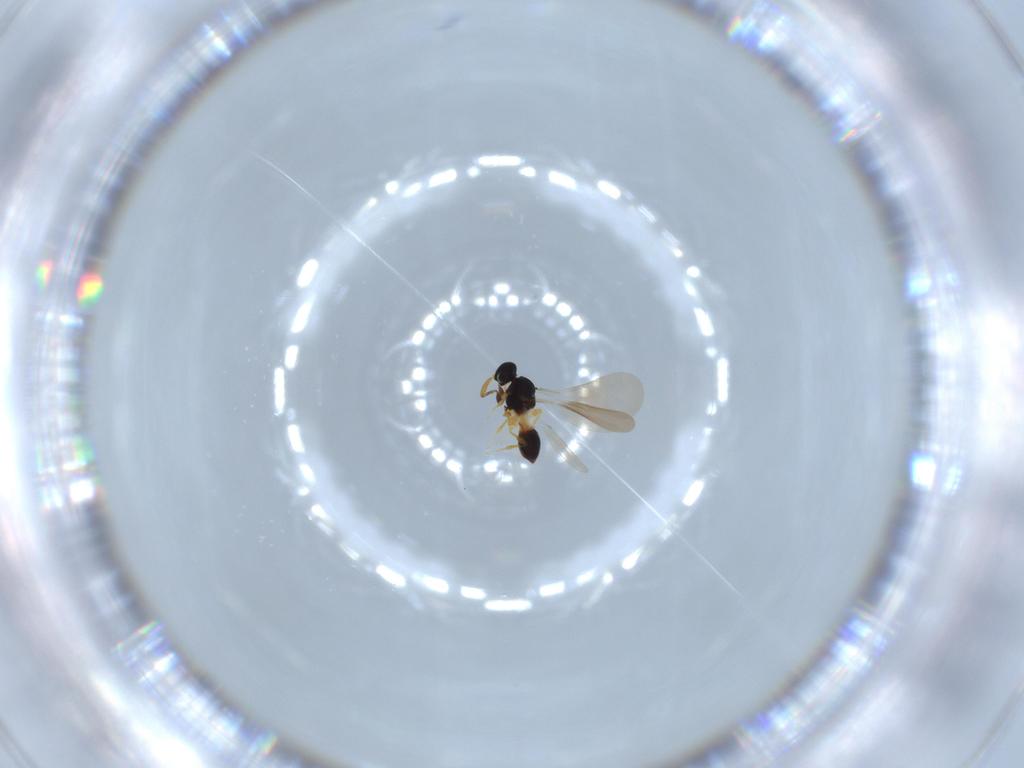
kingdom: Animalia
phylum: Arthropoda
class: Insecta
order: Hymenoptera
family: Platygastridae
